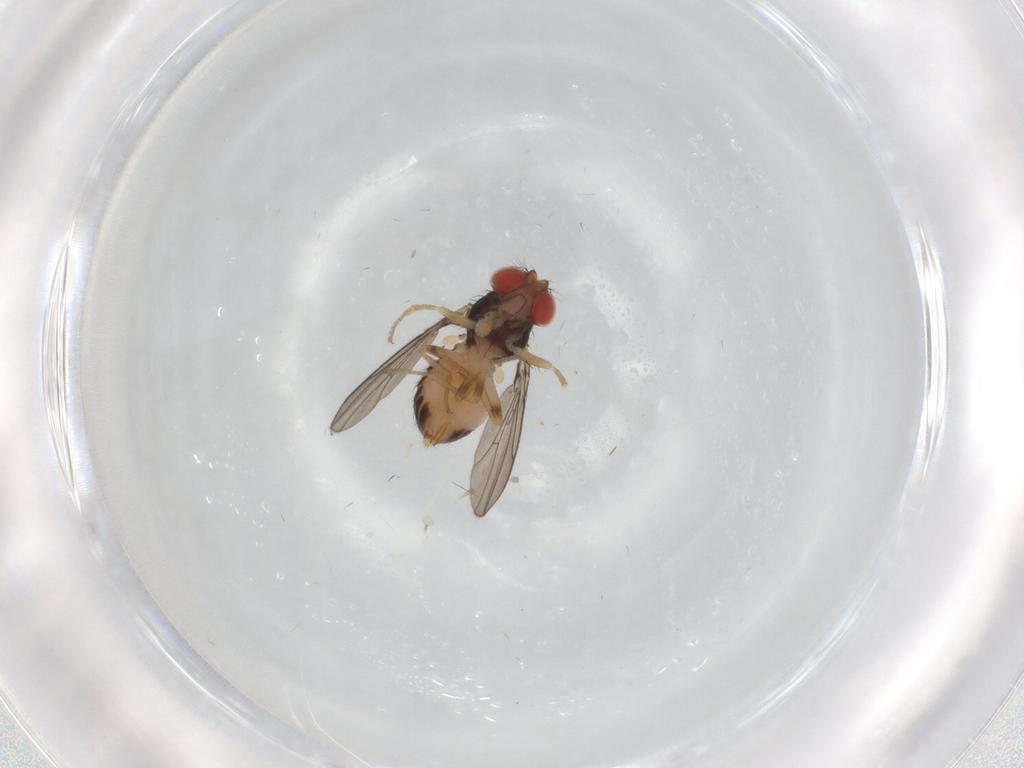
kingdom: Animalia
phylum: Arthropoda
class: Insecta
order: Diptera
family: Drosophilidae
